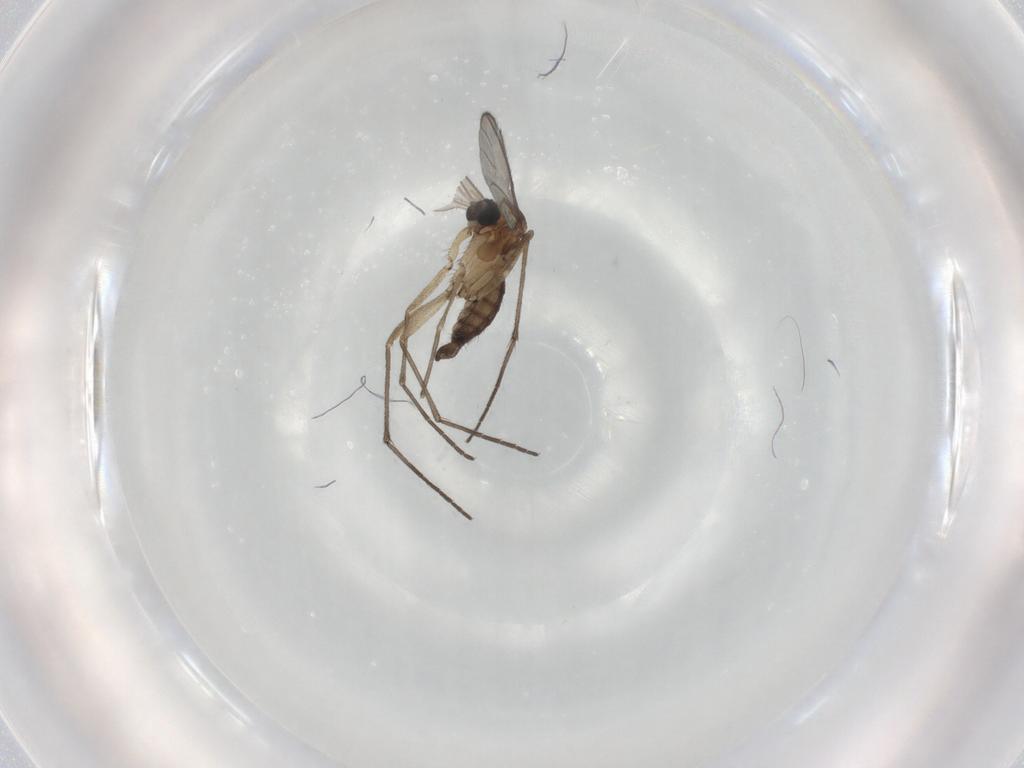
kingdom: Animalia
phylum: Arthropoda
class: Insecta
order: Diptera
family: Sciaridae
